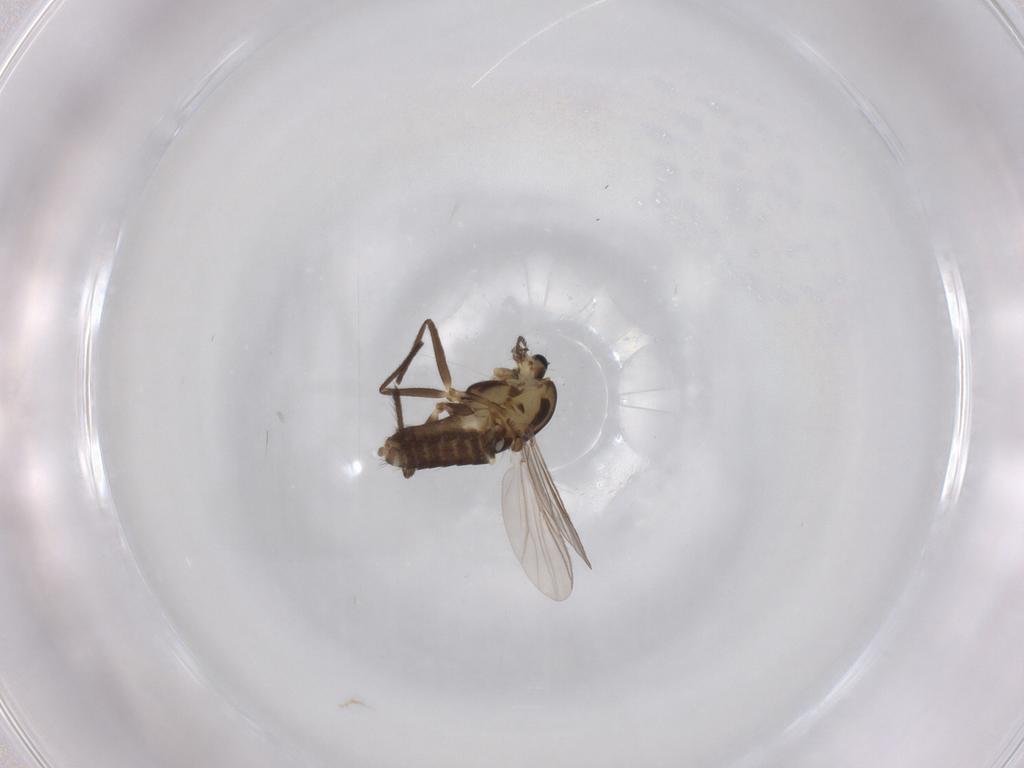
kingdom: Animalia
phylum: Arthropoda
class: Insecta
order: Diptera
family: Chironomidae
